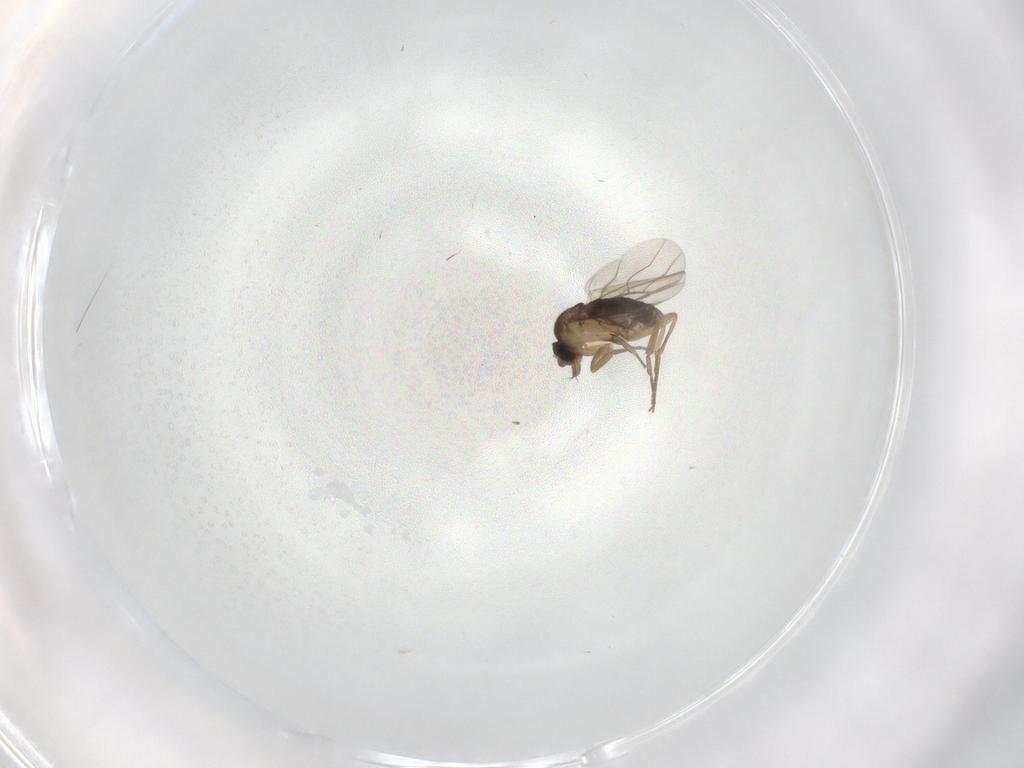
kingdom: Animalia
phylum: Arthropoda
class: Insecta
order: Diptera
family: Phoridae
